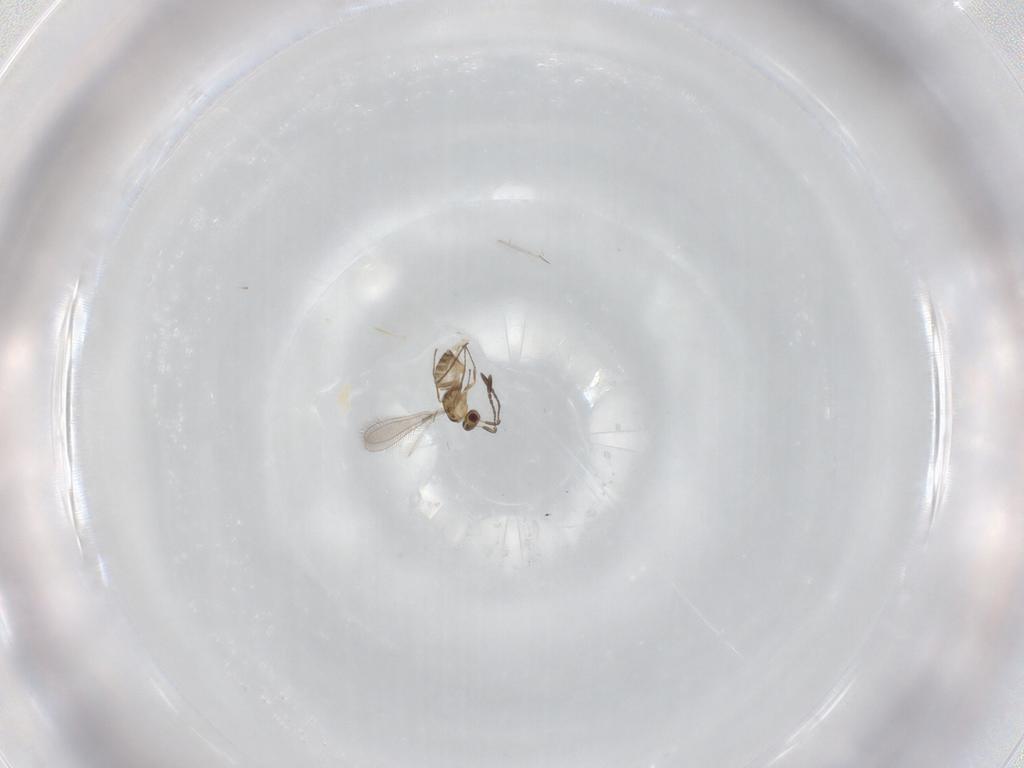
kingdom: Animalia
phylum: Arthropoda
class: Insecta
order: Hymenoptera
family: Mymaridae
